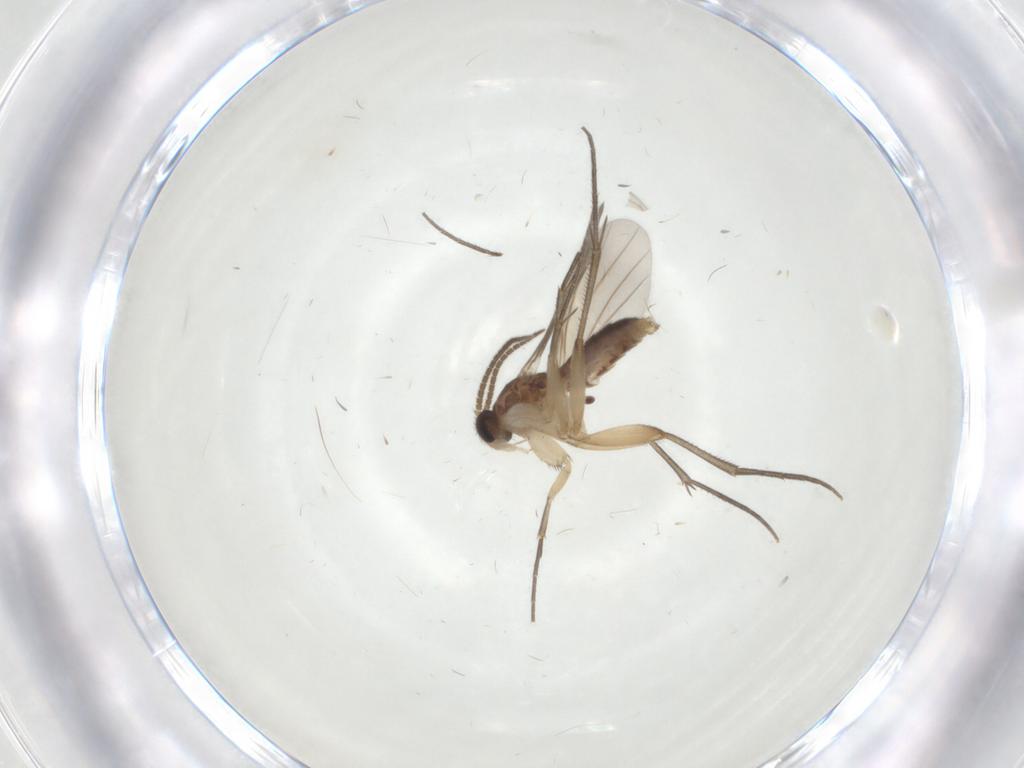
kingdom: Animalia
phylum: Arthropoda
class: Insecta
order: Diptera
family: Mycetophilidae
